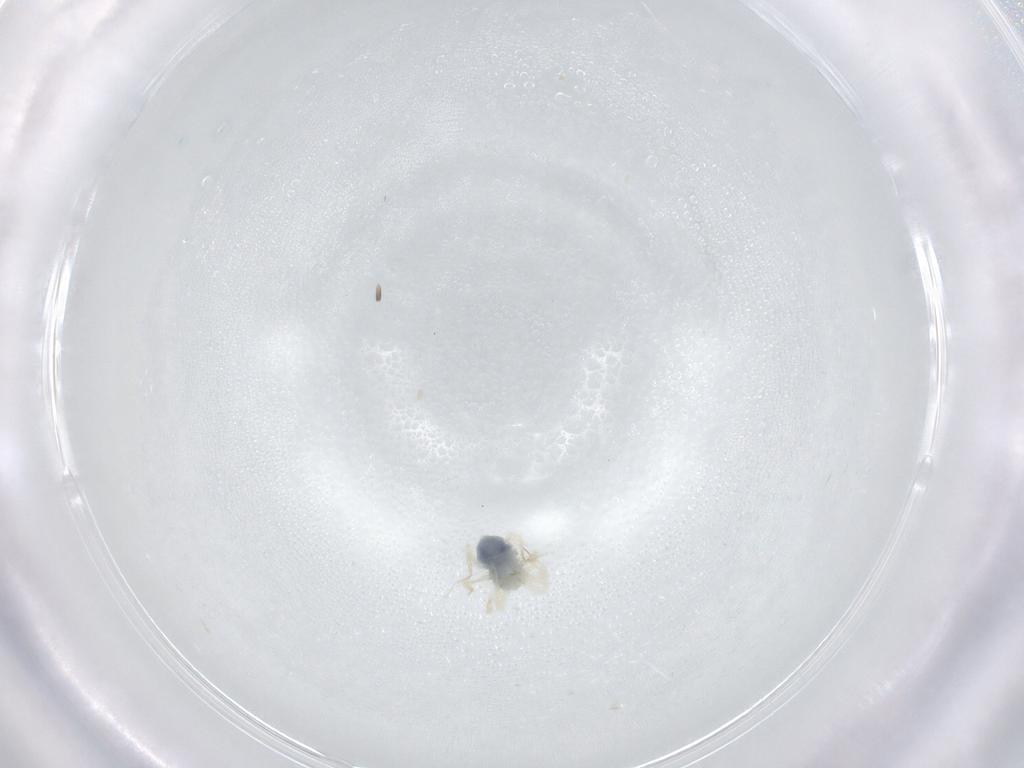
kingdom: Animalia
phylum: Arthropoda
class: Arachnida
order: Trombidiformes
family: Anystidae
